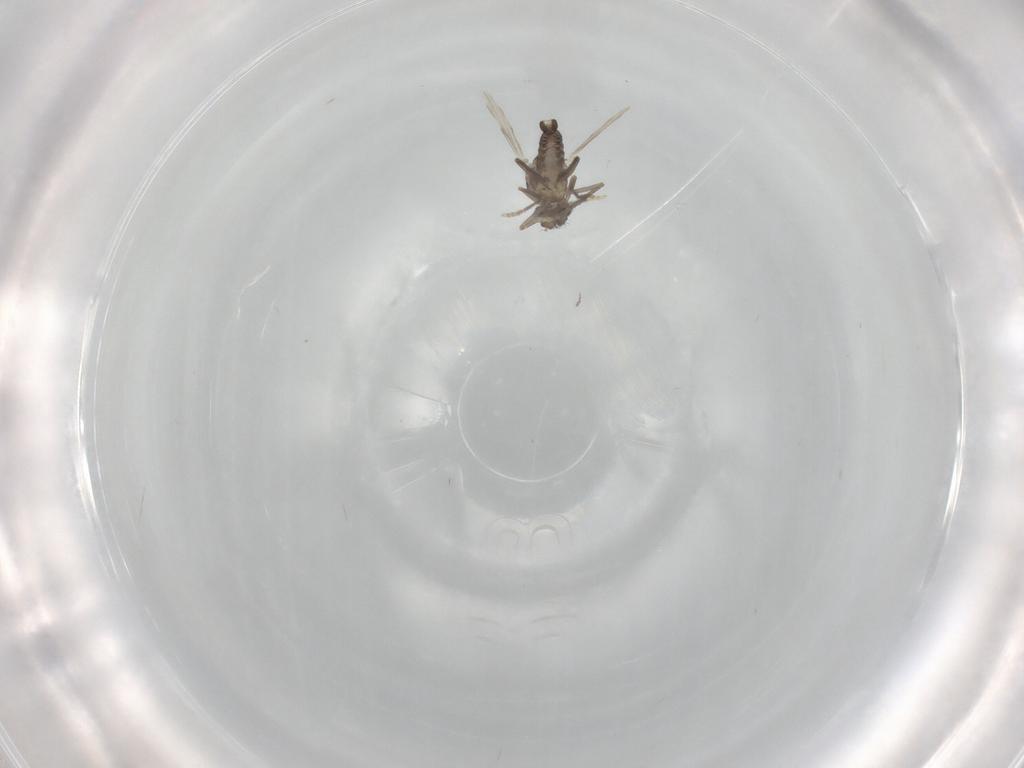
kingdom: Animalia
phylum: Arthropoda
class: Insecta
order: Diptera
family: Ceratopogonidae
